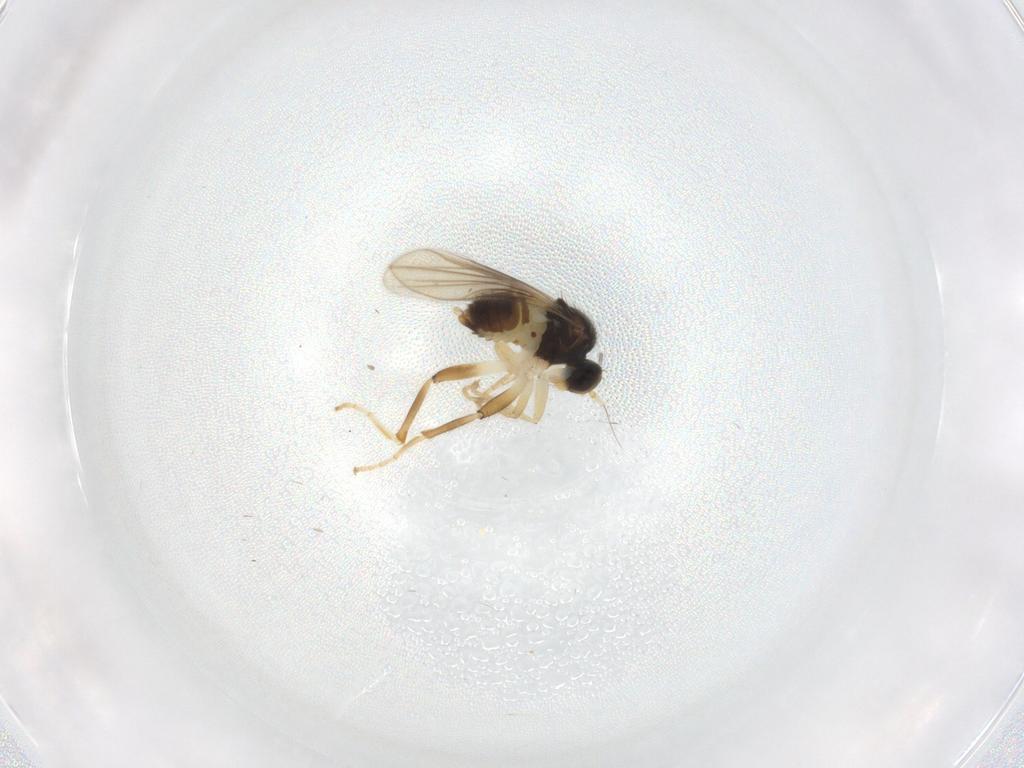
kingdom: Animalia
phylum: Arthropoda
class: Insecta
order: Diptera
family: Hybotidae
